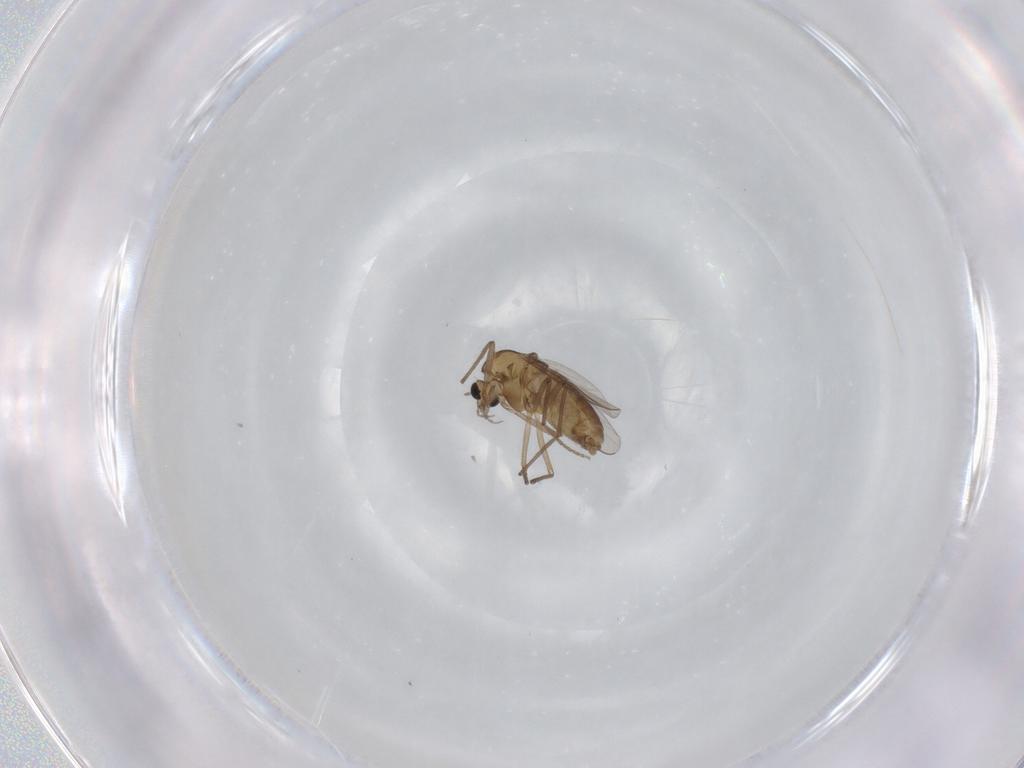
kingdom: Animalia
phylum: Arthropoda
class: Insecta
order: Diptera
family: Chironomidae
